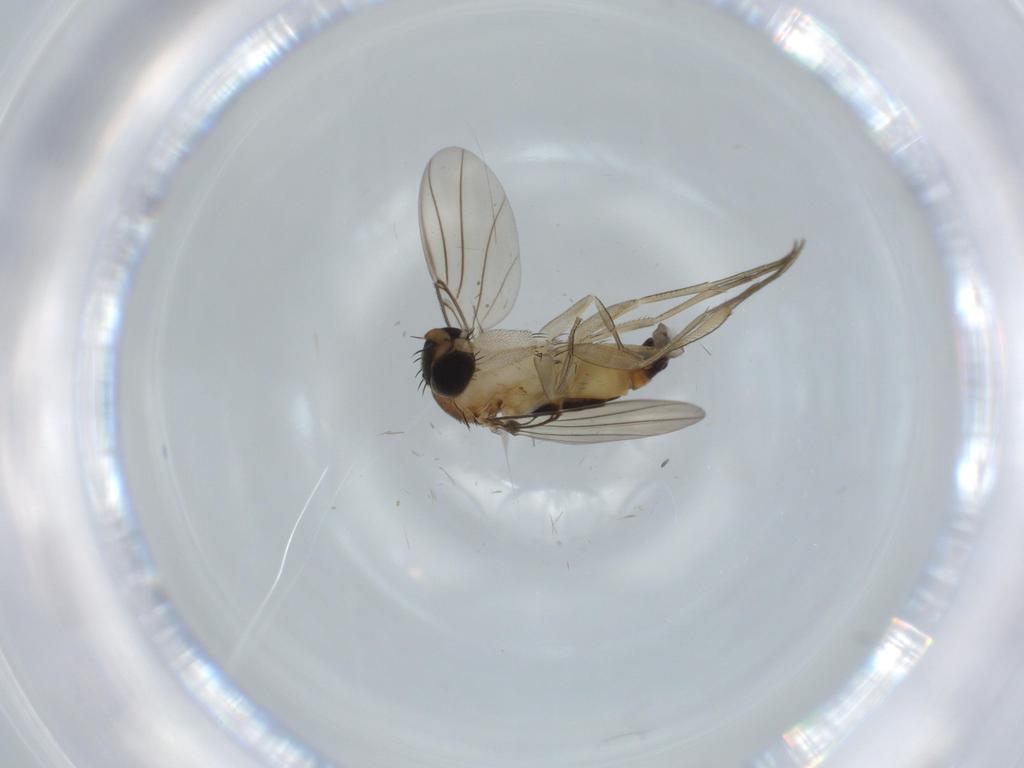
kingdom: Animalia
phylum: Arthropoda
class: Insecta
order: Diptera
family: Phoridae
